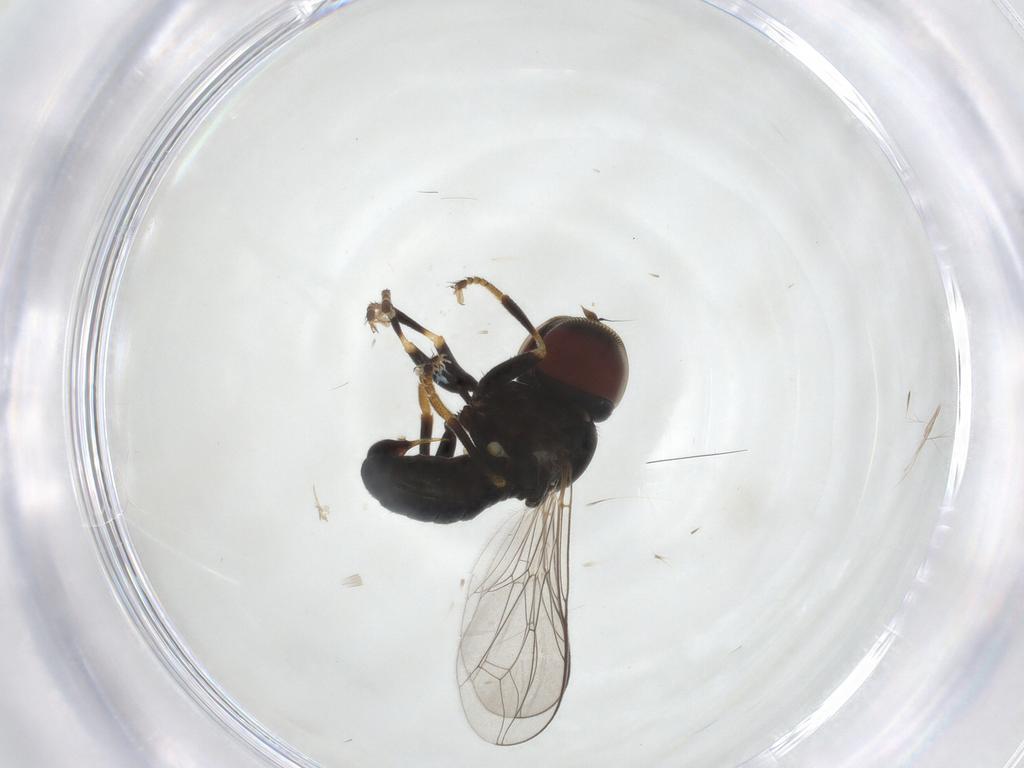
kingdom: Animalia
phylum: Arthropoda
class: Insecta
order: Diptera
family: Pipunculidae
